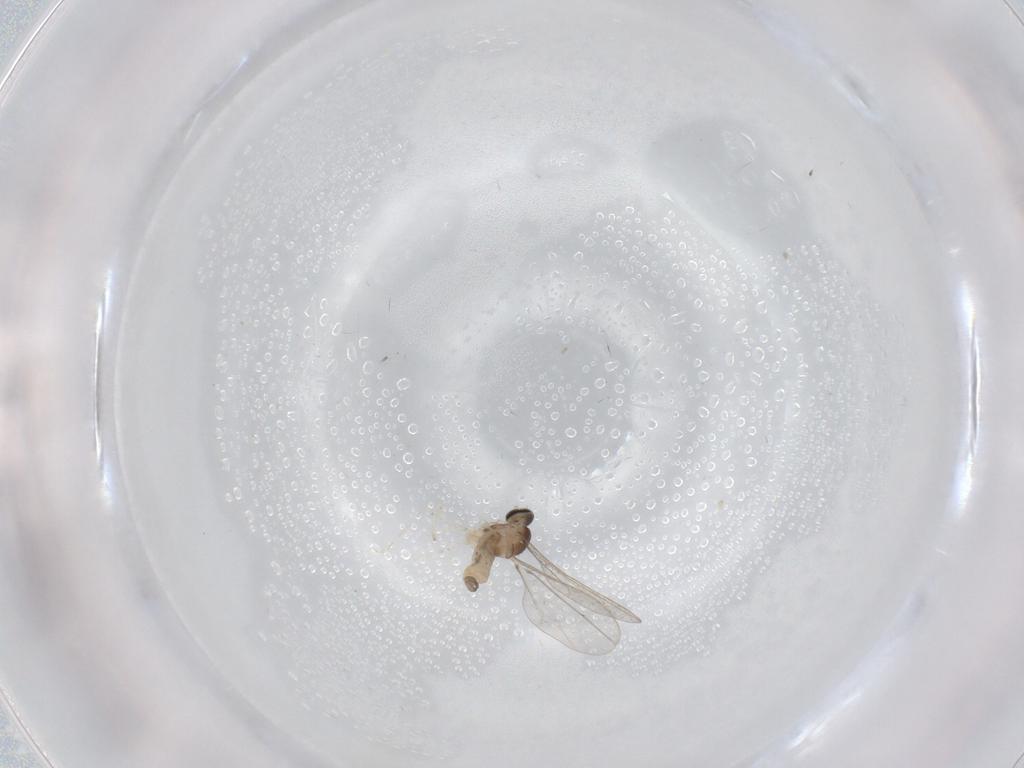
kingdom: Animalia
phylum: Arthropoda
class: Insecta
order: Diptera
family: Cecidomyiidae
